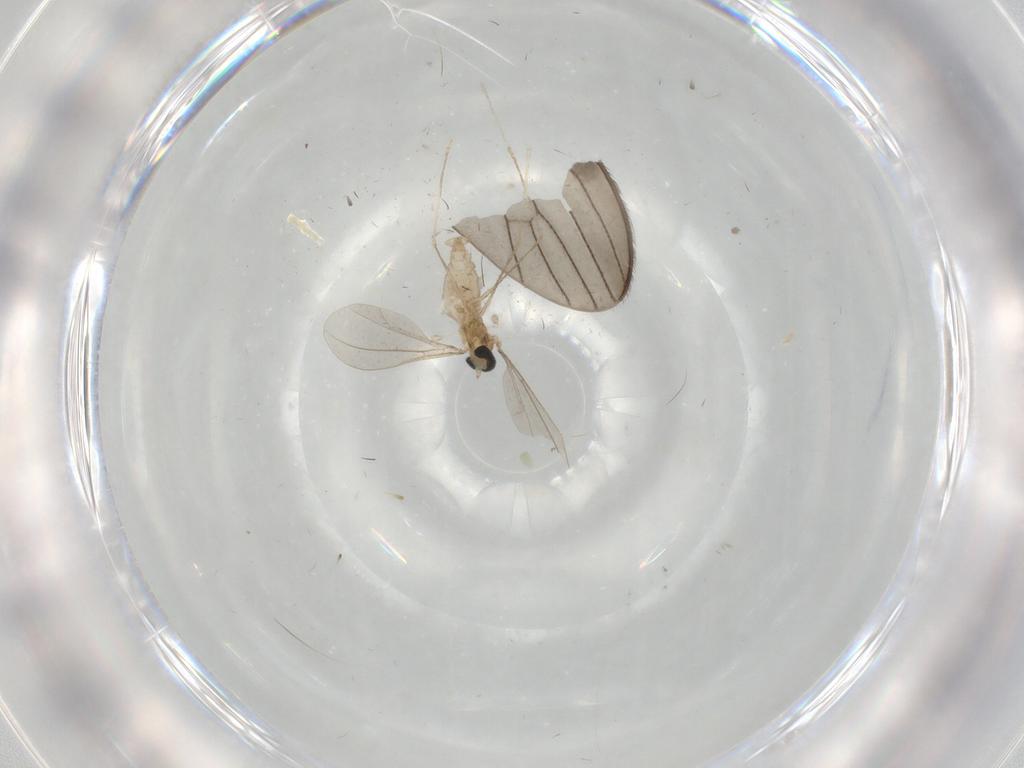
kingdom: Animalia
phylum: Arthropoda
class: Insecta
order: Diptera
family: Cecidomyiidae
